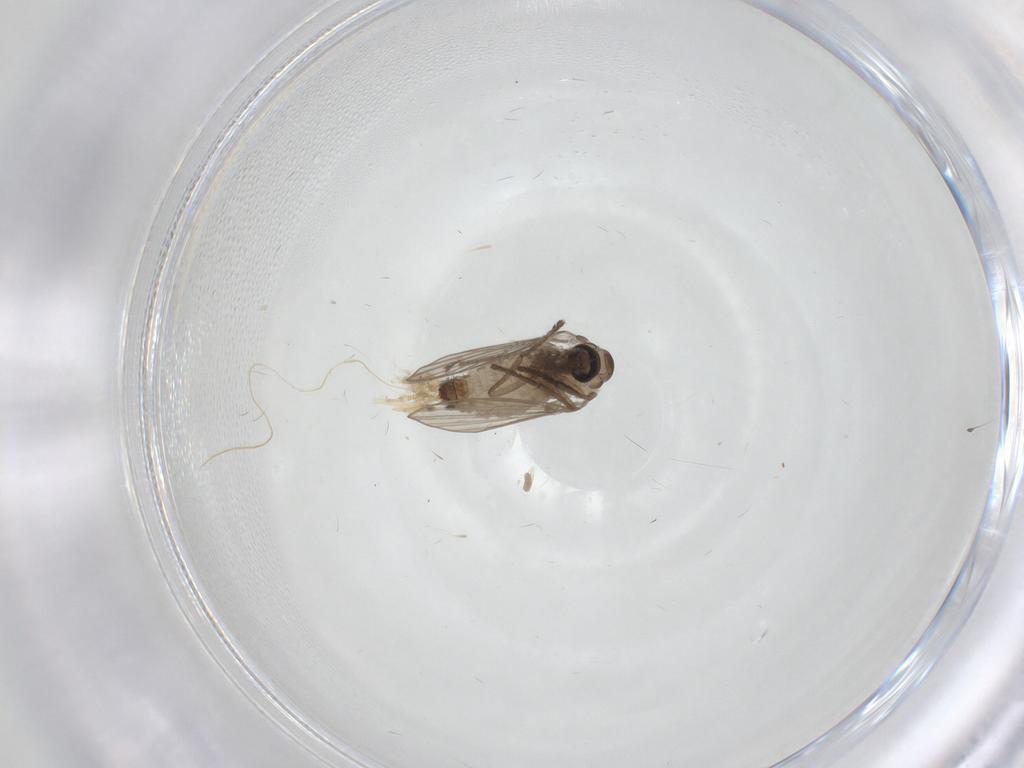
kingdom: Animalia
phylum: Arthropoda
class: Insecta
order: Diptera
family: Psychodidae
